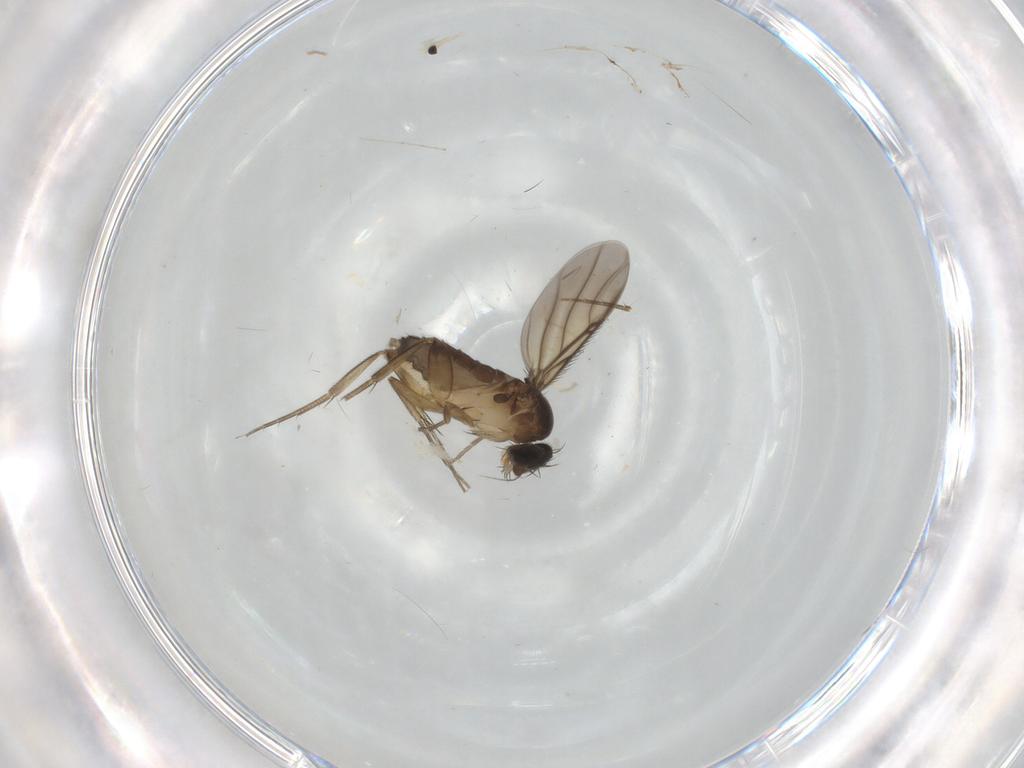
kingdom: Animalia
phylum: Arthropoda
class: Insecta
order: Diptera
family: Phoridae
